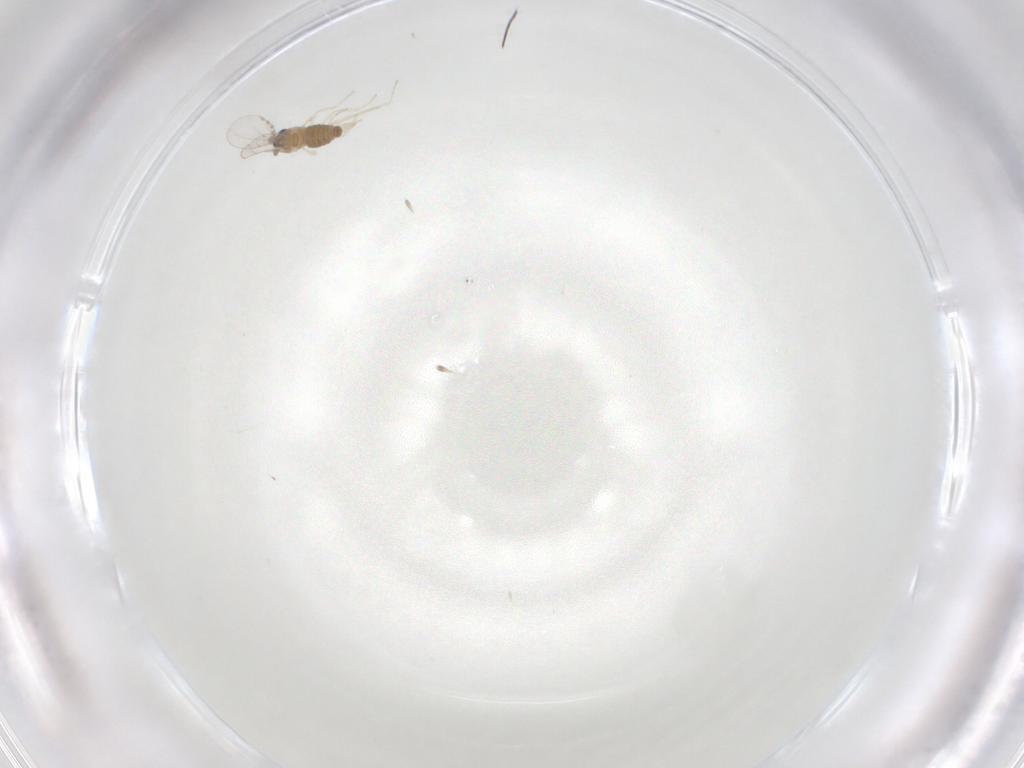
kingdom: Animalia
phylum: Arthropoda
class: Insecta
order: Diptera
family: Cecidomyiidae
